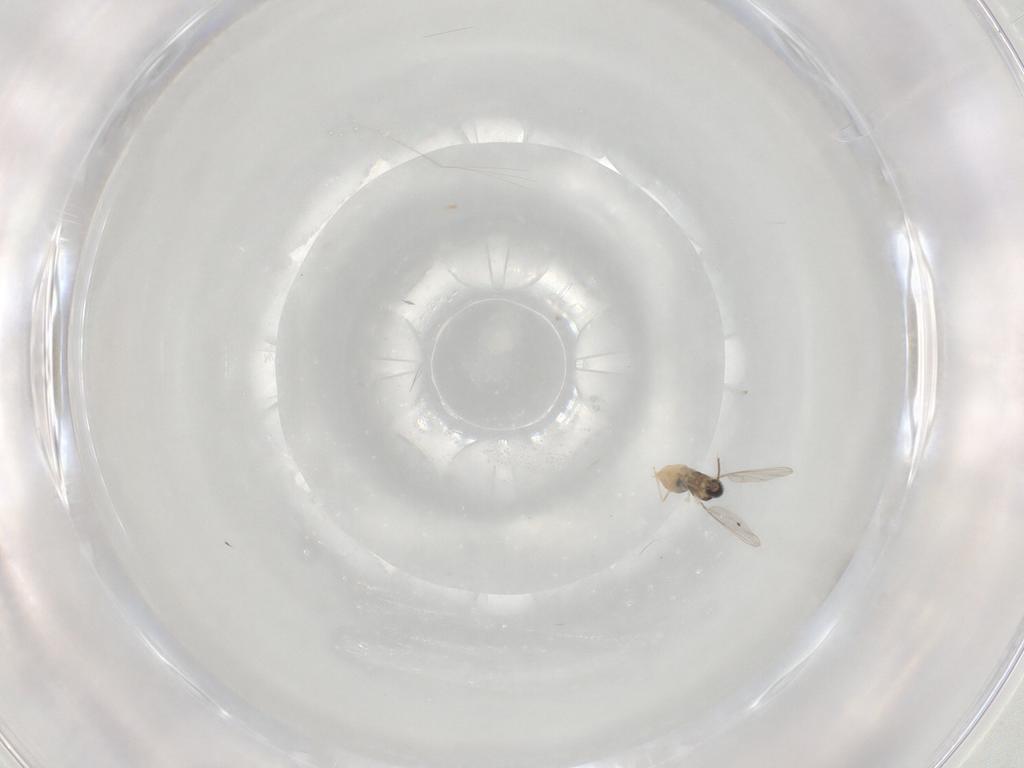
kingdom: Animalia
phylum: Arthropoda
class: Insecta
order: Diptera
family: Cecidomyiidae
